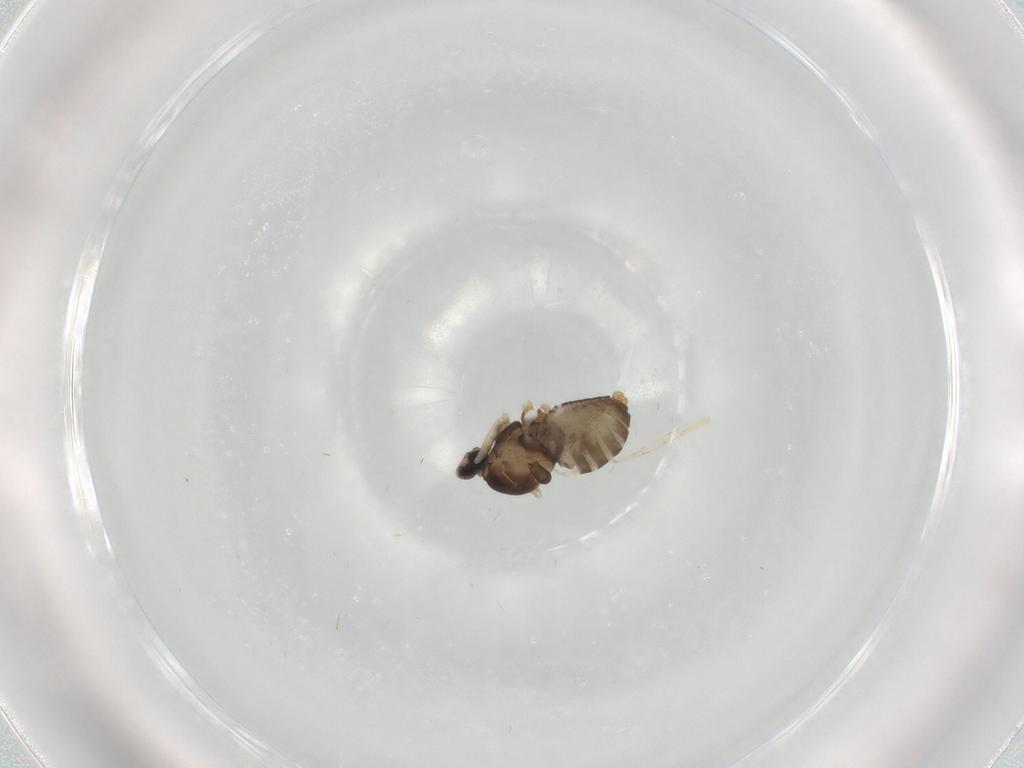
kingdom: Animalia
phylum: Arthropoda
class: Insecta
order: Diptera
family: Cecidomyiidae
